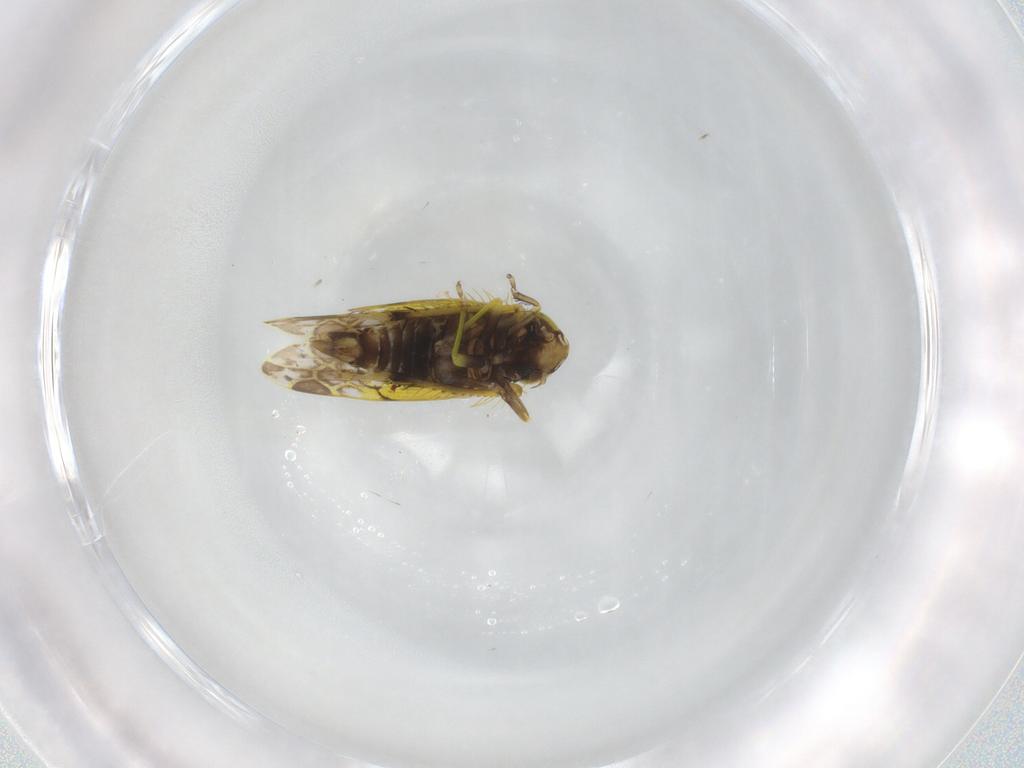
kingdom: Animalia
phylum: Arthropoda
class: Insecta
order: Hemiptera
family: Cicadellidae
